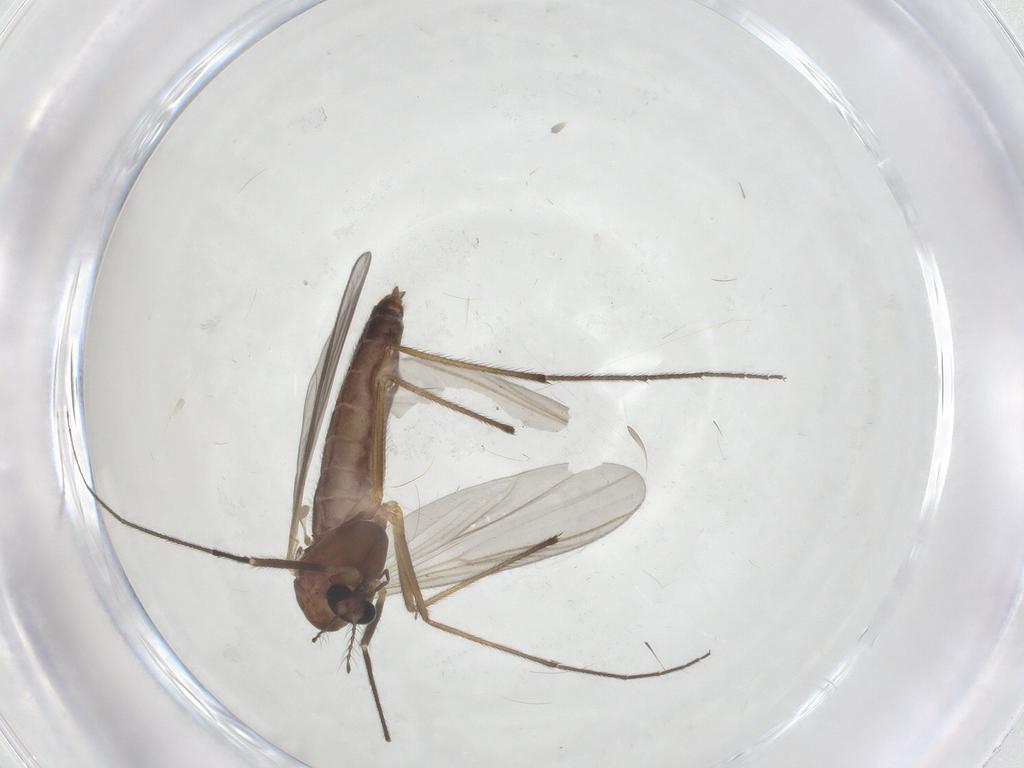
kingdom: Animalia
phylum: Arthropoda
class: Insecta
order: Diptera
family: Chironomidae
